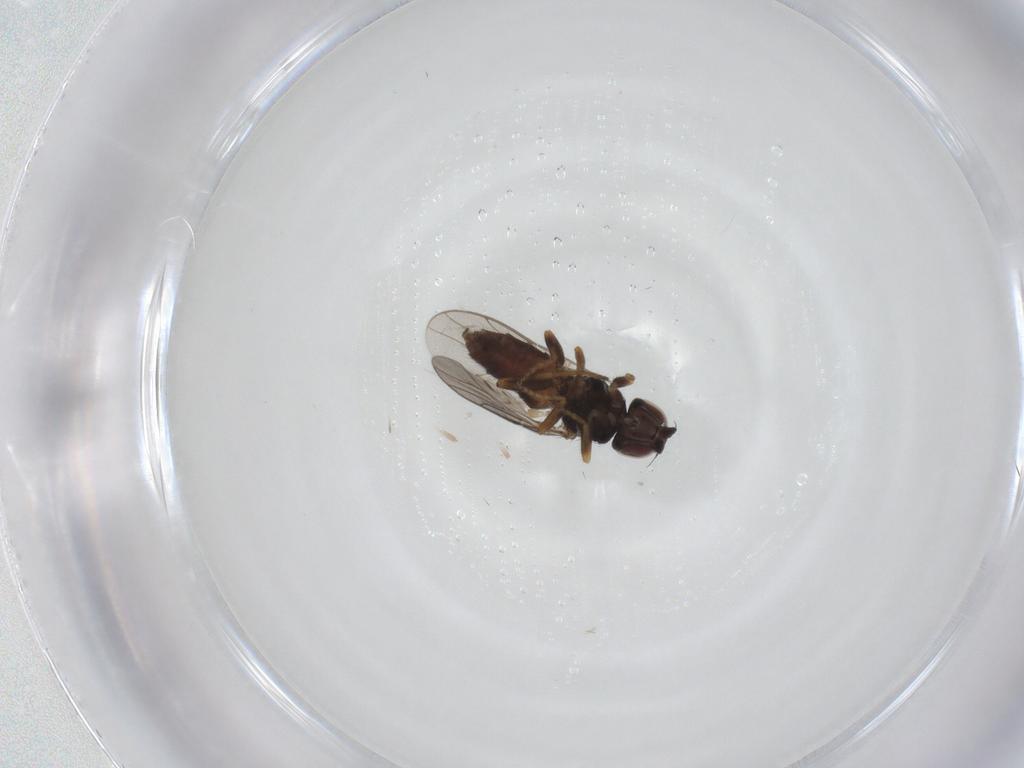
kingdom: Animalia
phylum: Arthropoda
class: Insecta
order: Diptera
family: Chloropidae
